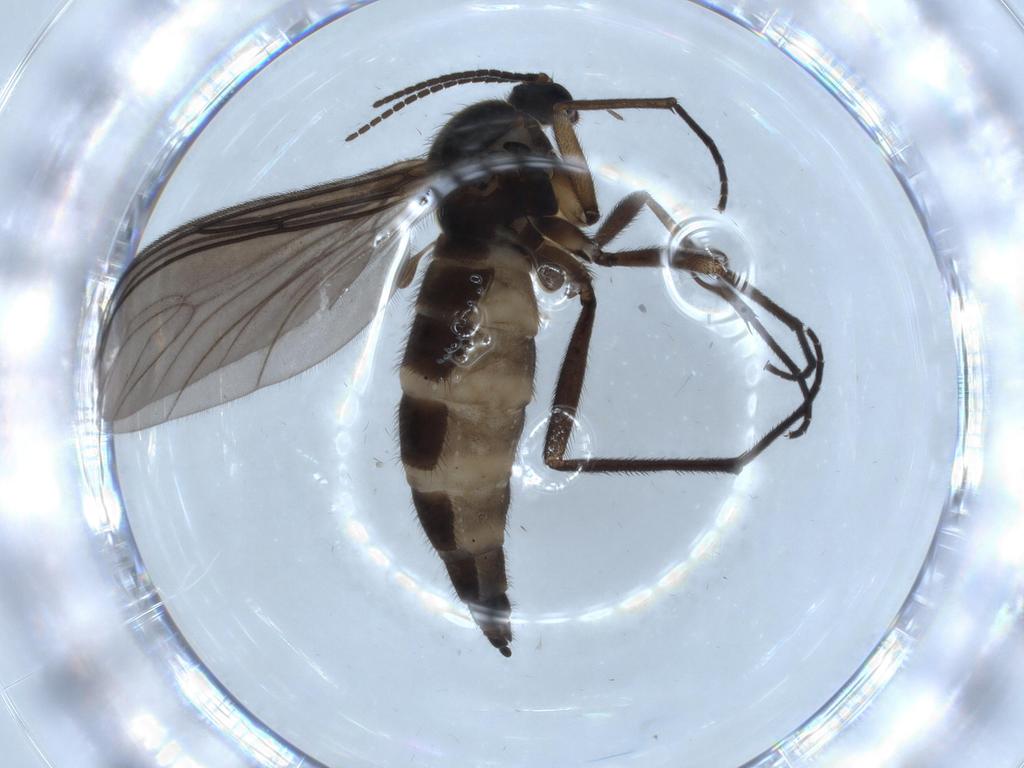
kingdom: Animalia
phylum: Arthropoda
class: Insecta
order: Diptera
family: Sciaridae
